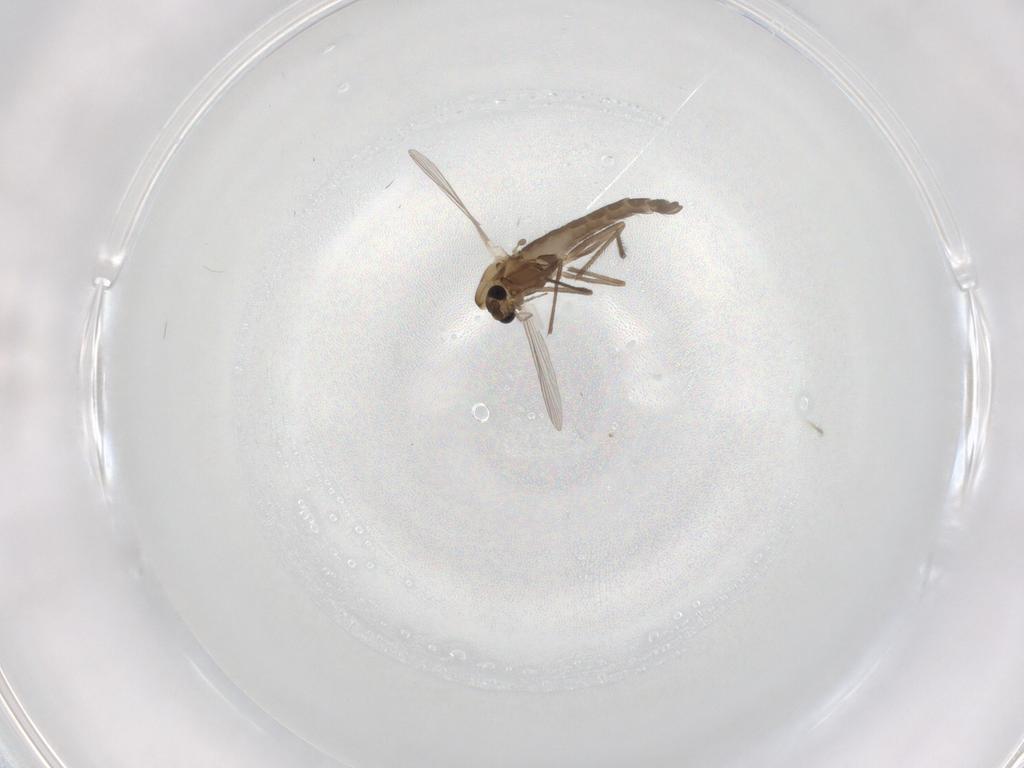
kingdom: Animalia
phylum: Arthropoda
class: Insecta
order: Diptera
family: Chironomidae
